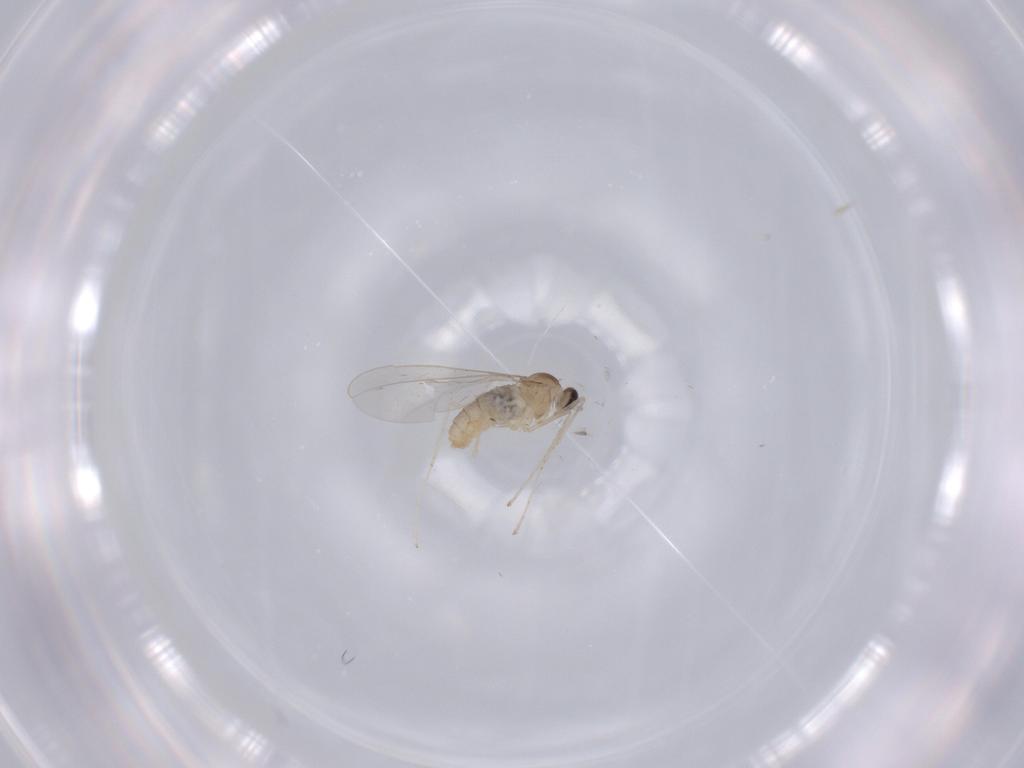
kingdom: Animalia
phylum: Arthropoda
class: Insecta
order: Diptera
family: Cecidomyiidae
